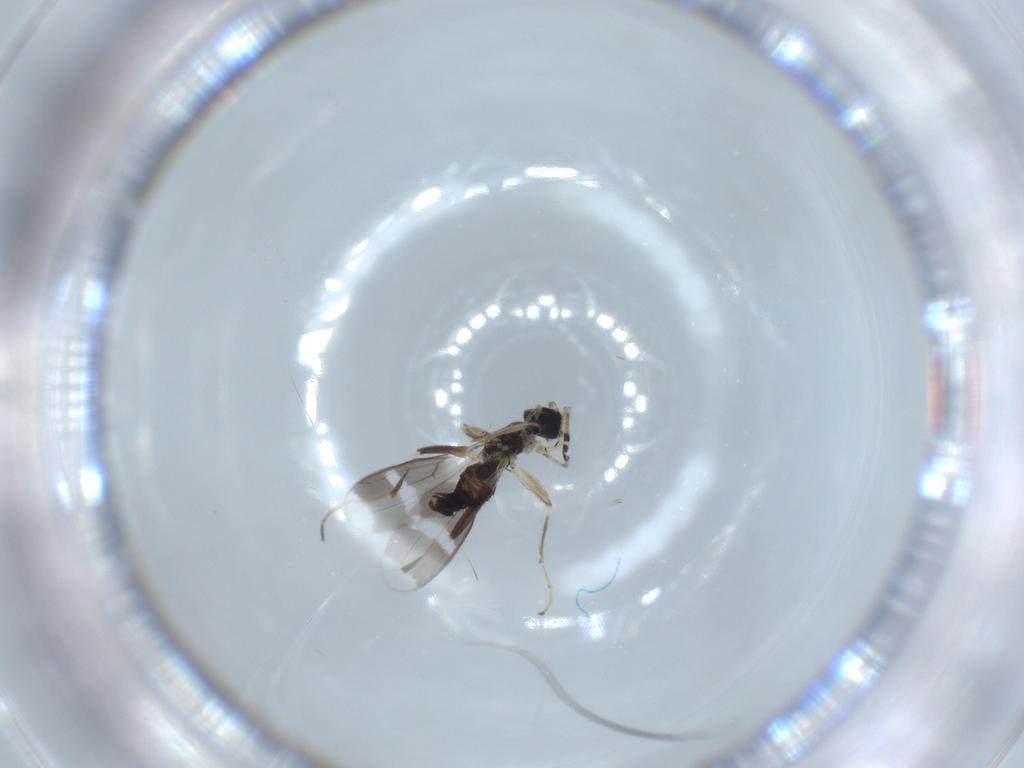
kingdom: Animalia
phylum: Arthropoda
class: Insecta
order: Diptera
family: Hybotidae
